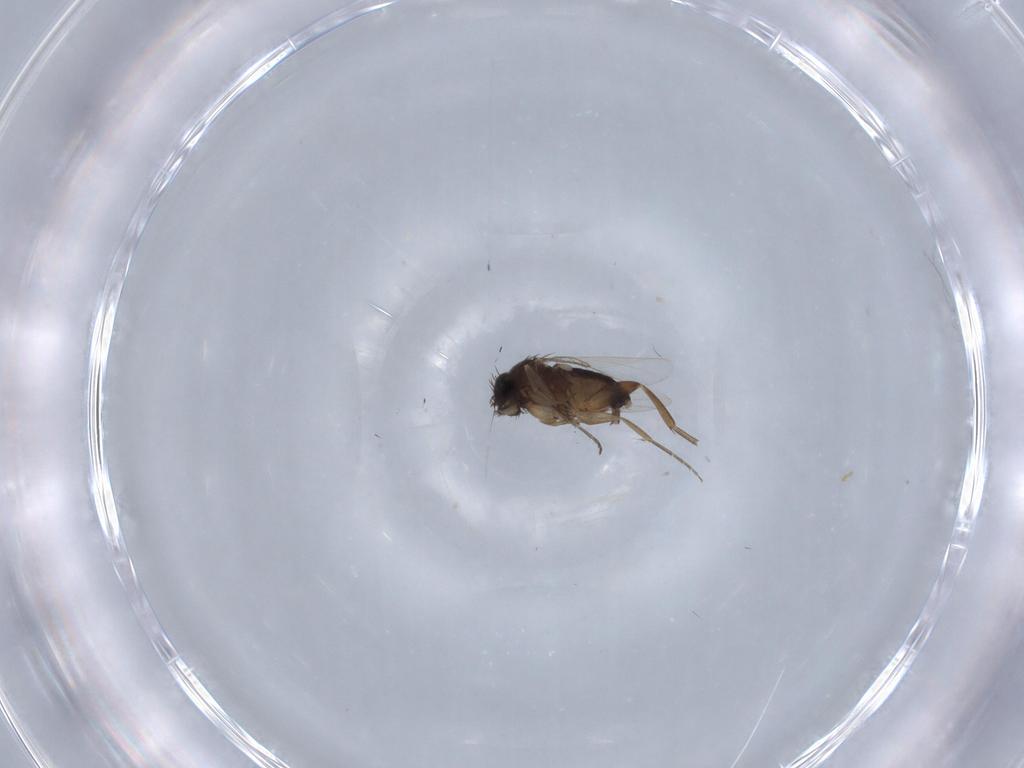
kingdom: Animalia
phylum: Arthropoda
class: Insecta
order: Diptera
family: Phoridae
